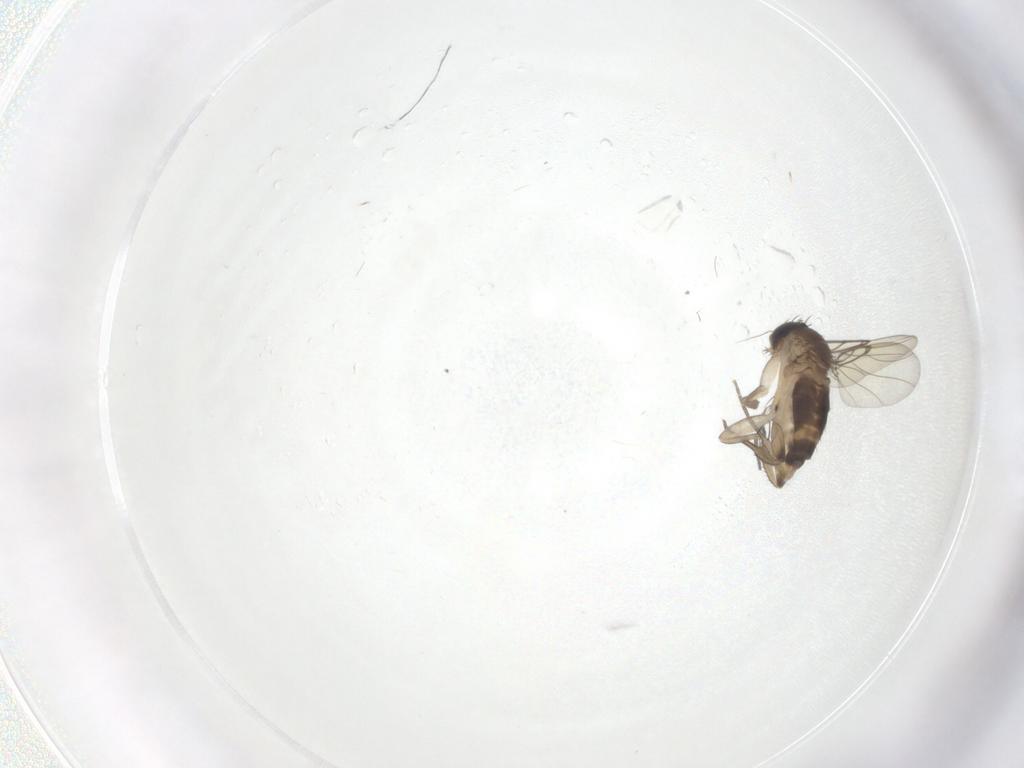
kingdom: Animalia
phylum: Arthropoda
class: Insecta
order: Diptera
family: Phoridae
